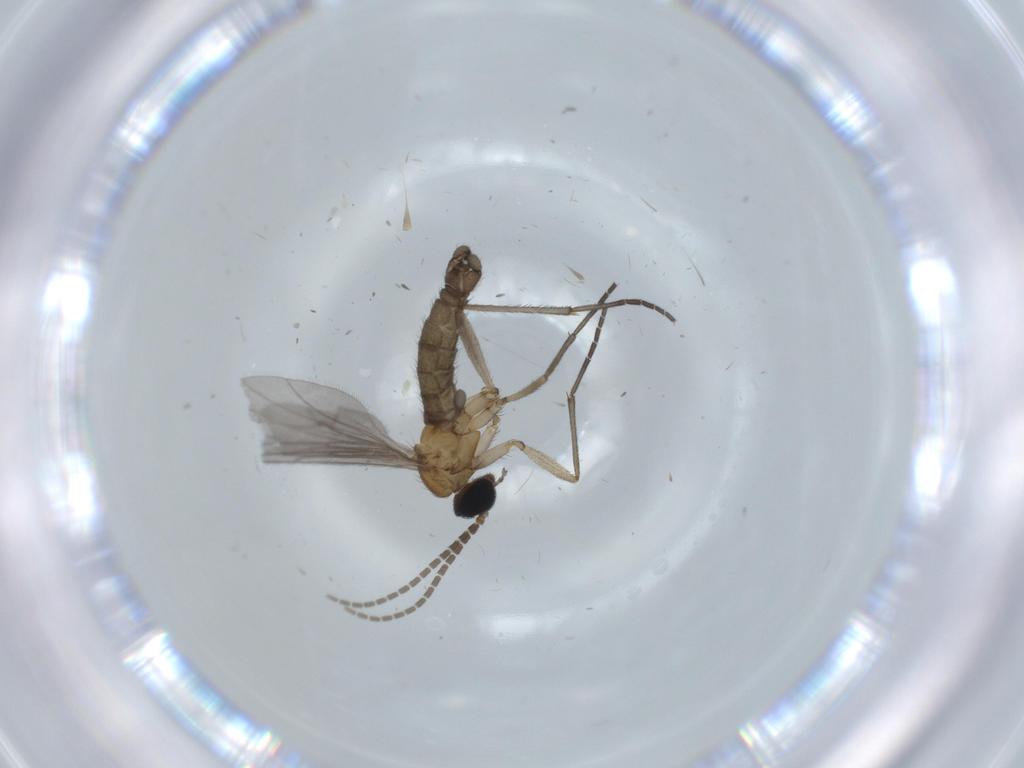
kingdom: Animalia
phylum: Arthropoda
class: Insecta
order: Diptera
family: Sciaridae
